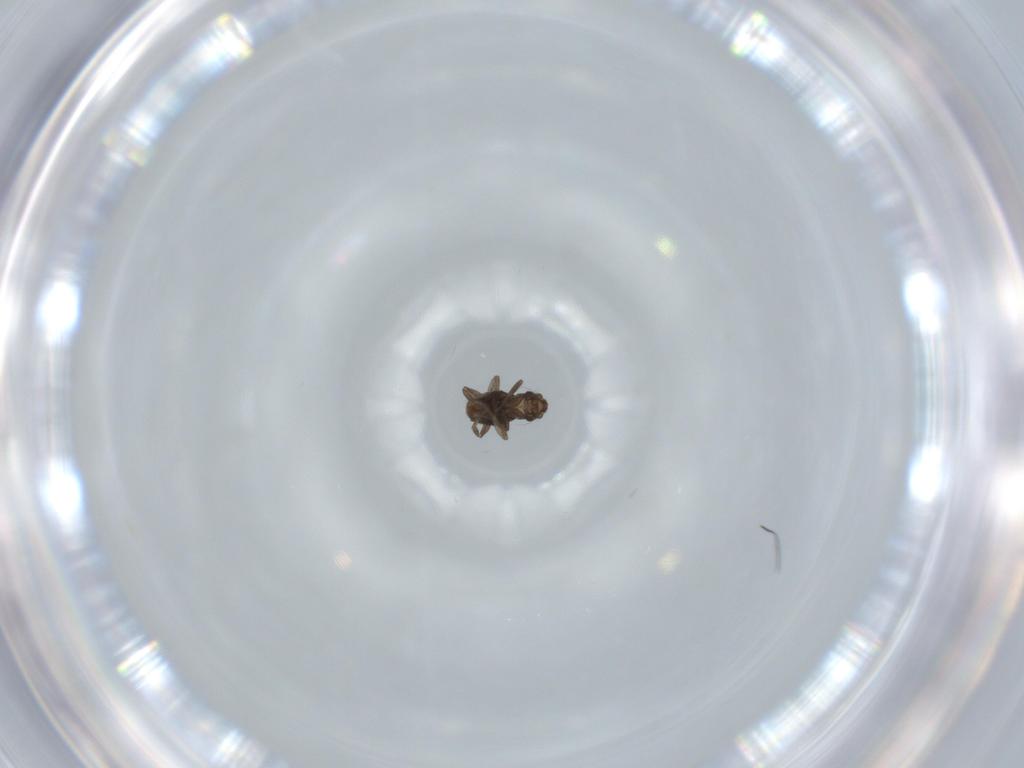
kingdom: Animalia
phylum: Arthropoda
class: Insecta
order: Diptera
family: Phoridae
